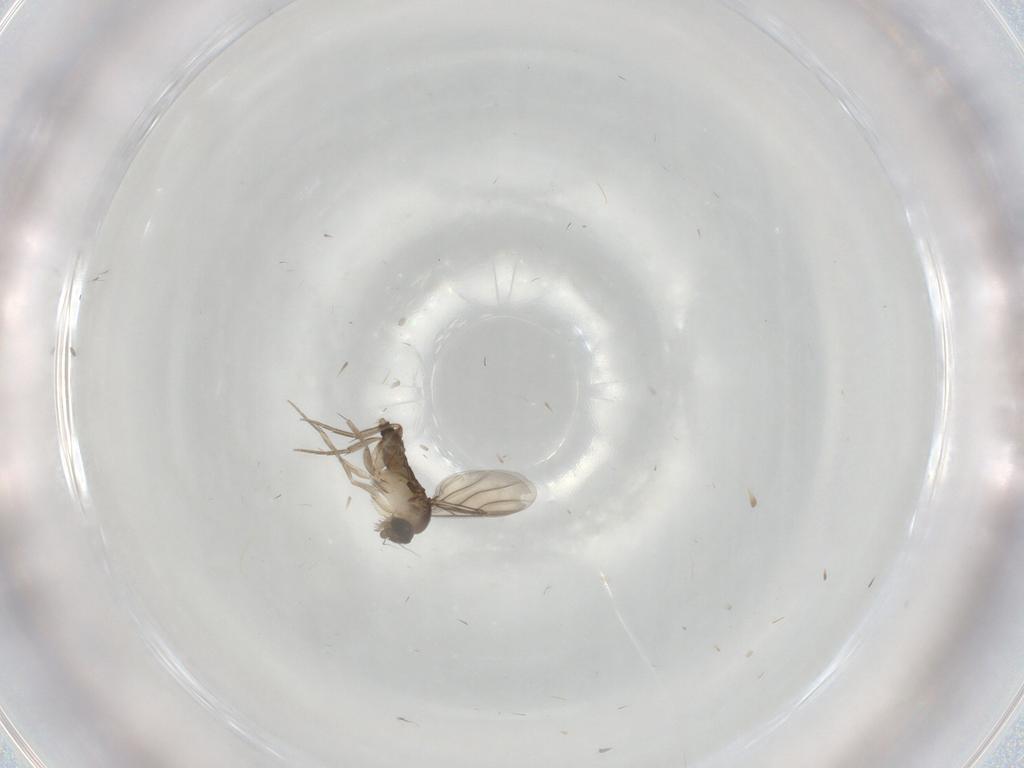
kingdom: Animalia
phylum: Arthropoda
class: Insecta
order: Diptera
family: Phoridae
